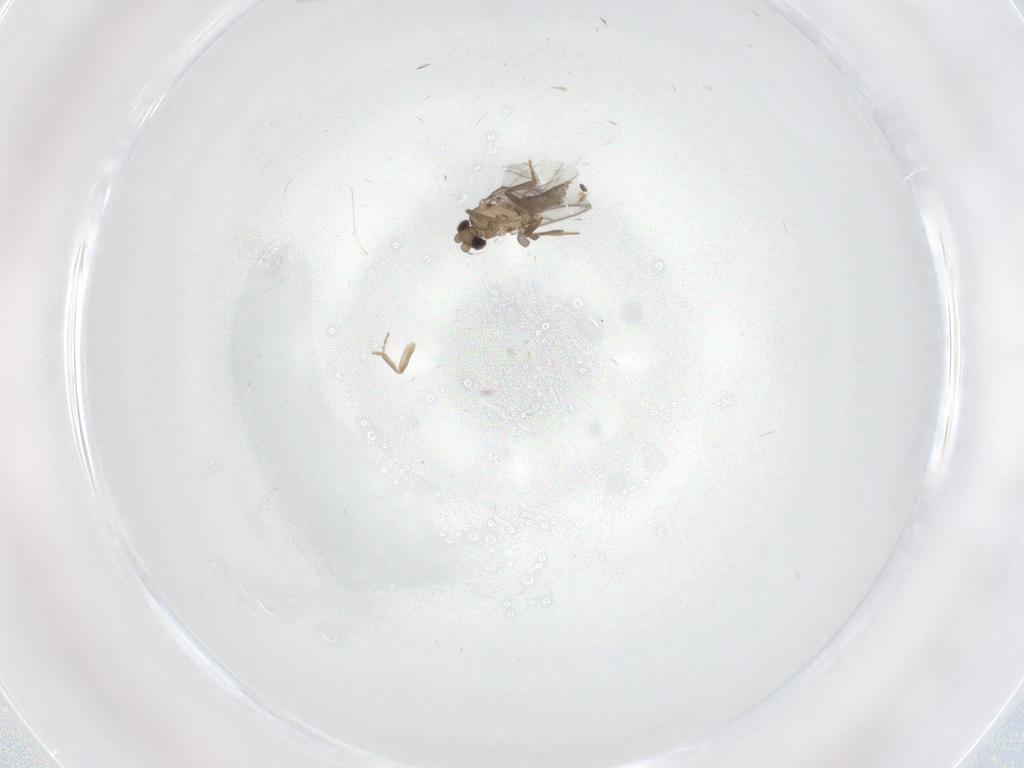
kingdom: Animalia
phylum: Arthropoda
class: Insecta
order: Diptera
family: Cecidomyiidae
